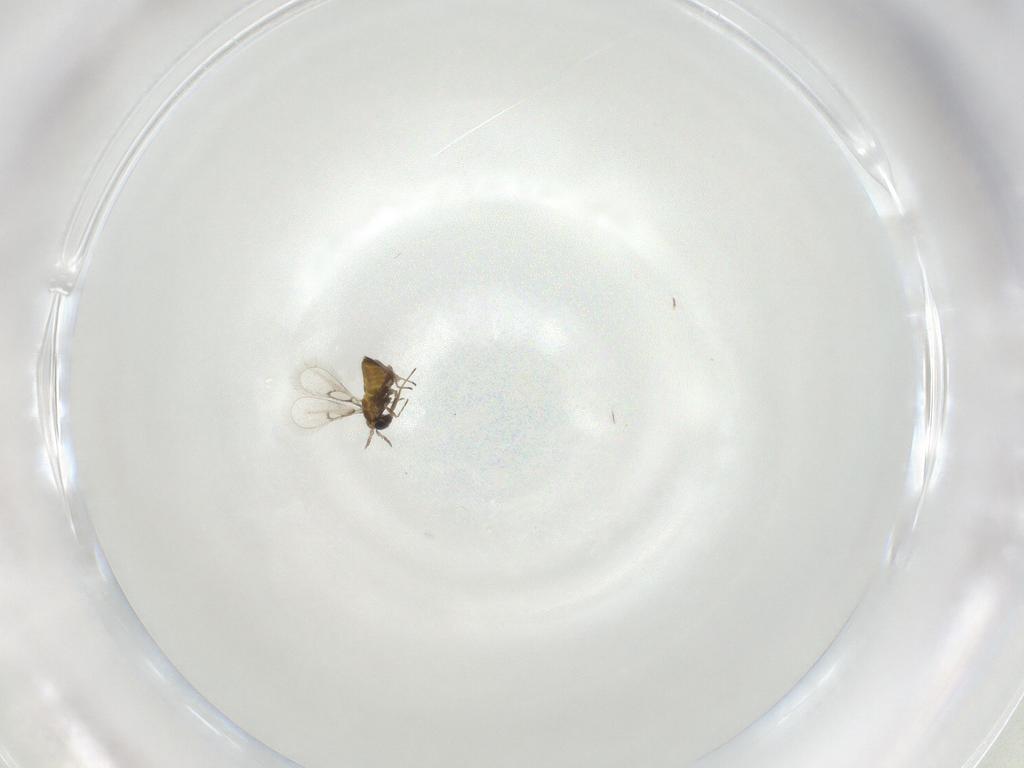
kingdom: Animalia
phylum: Arthropoda
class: Insecta
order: Hymenoptera
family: Trichogrammatidae
